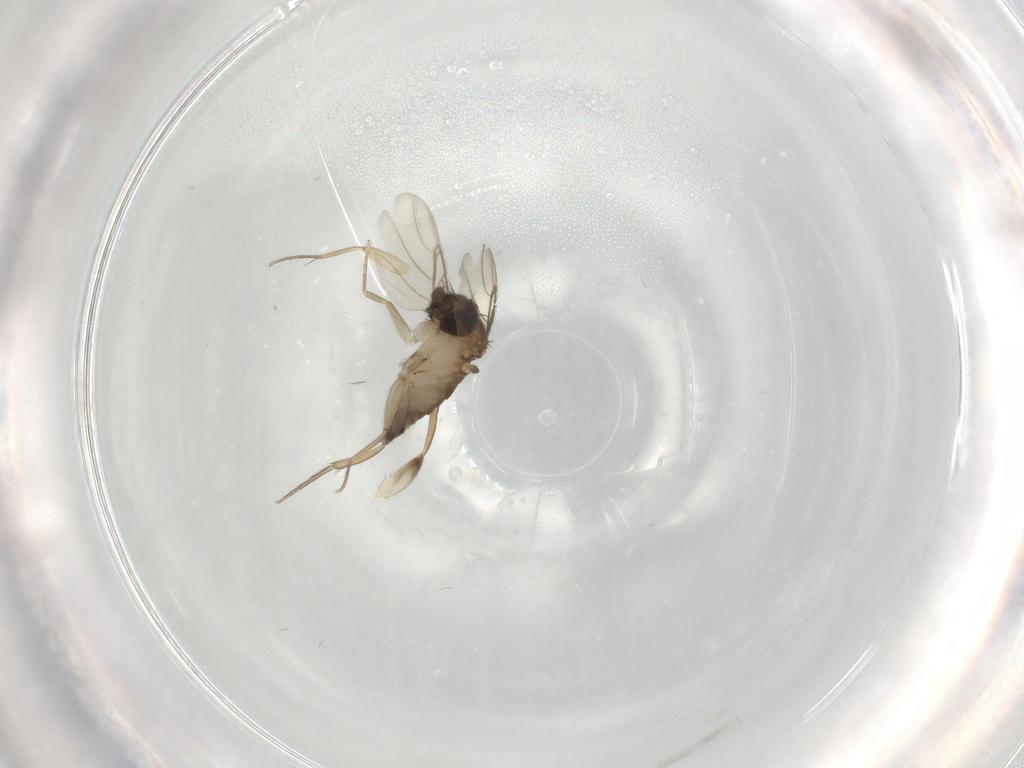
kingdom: Animalia
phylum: Arthropoda
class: Insecta
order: Diptera
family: Phoridae
